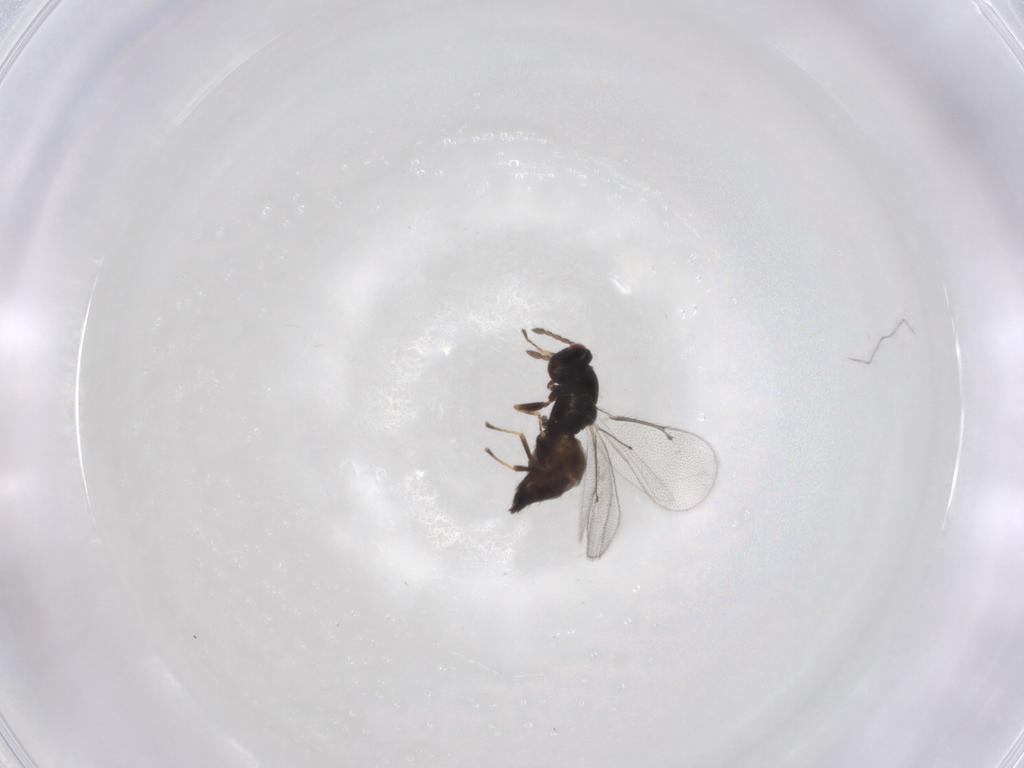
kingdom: Animalia
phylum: Arthropoda
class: Insecta
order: Hymenoptera
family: Eulophidae
